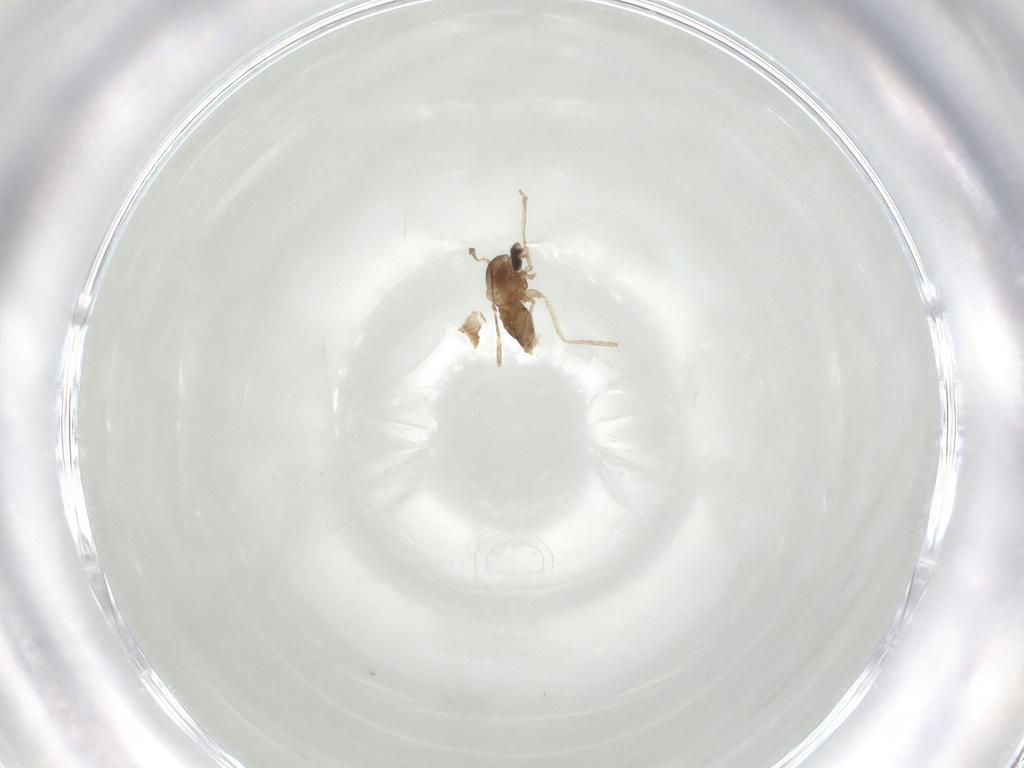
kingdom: Animalia
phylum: Arthropoda
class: Insecta
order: Diptera
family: Cecidomyiidae
